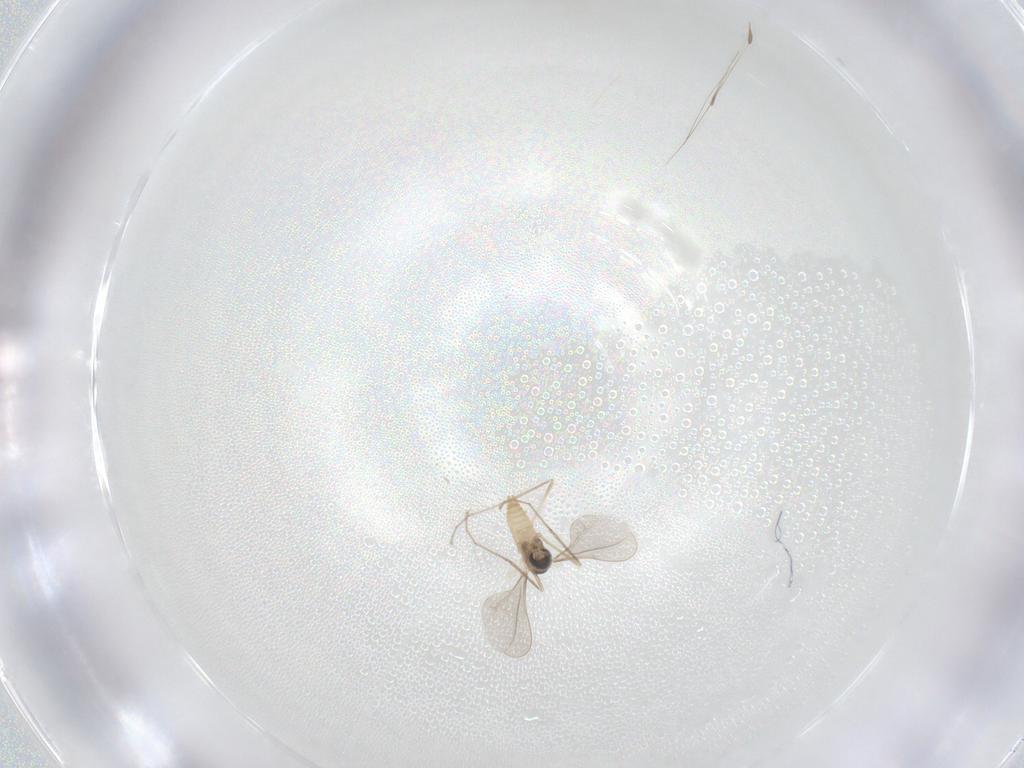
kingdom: Animalia
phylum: Arthropoda
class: Insecta
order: Diptera
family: Cecidomyiidae
